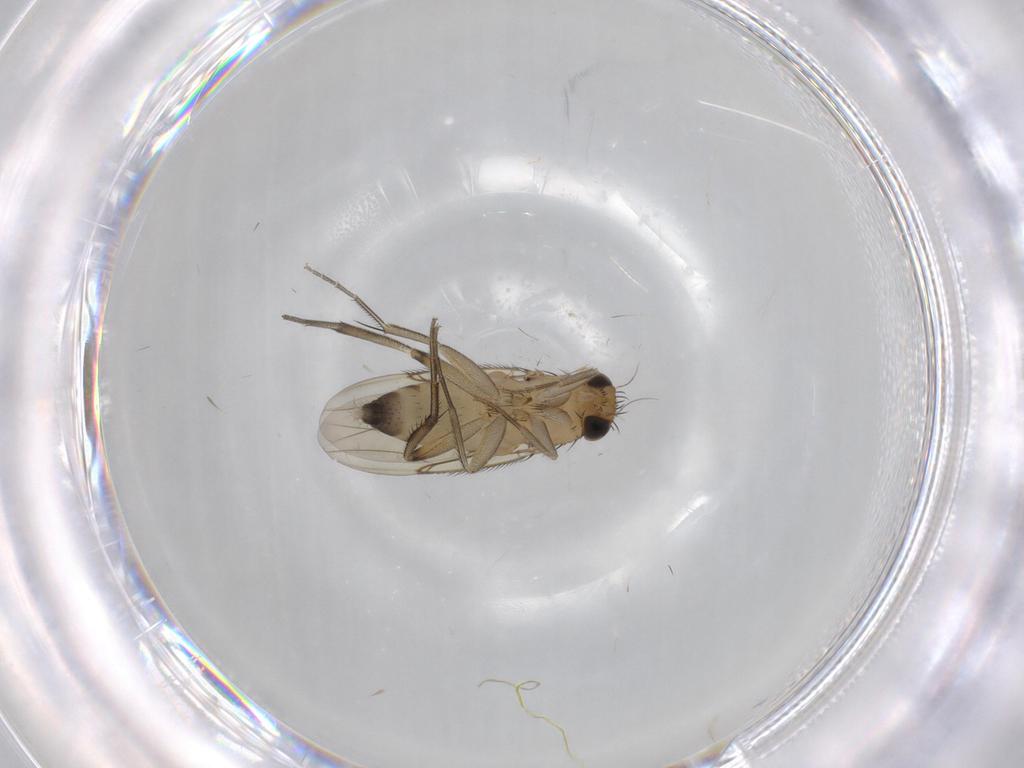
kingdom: Animalia
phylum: Arthropoda
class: Insecta
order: Diptera
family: Phoridae
